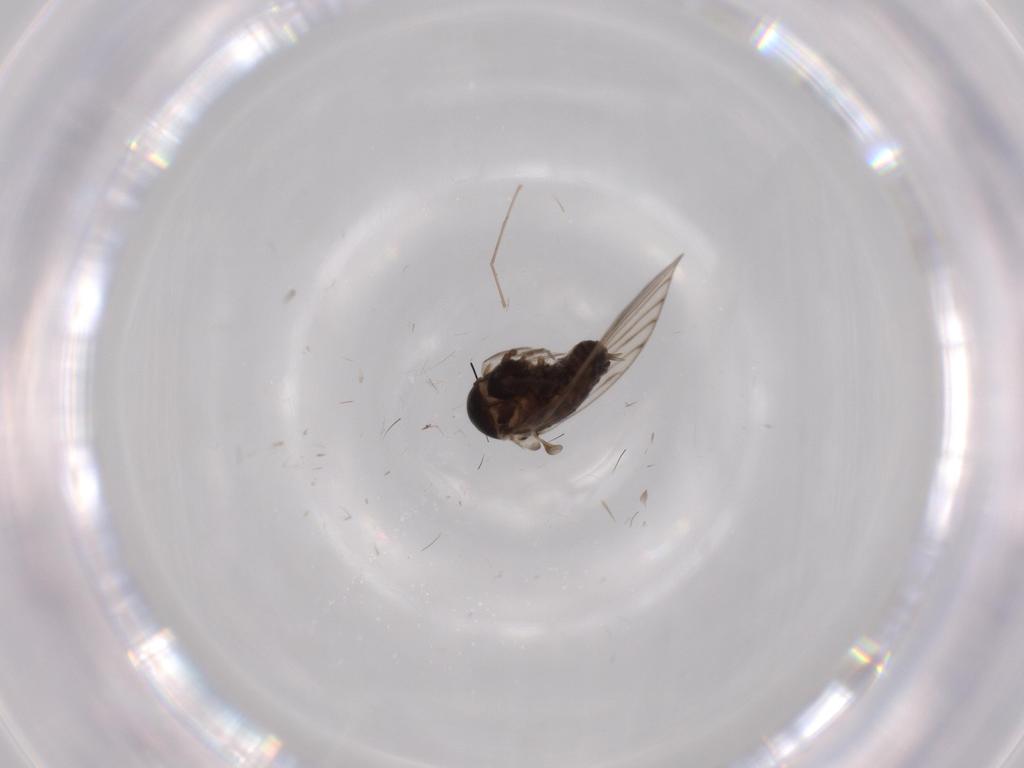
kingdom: Animalia
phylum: Arthropoda
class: Insecta
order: Diptera
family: Psychodidae
